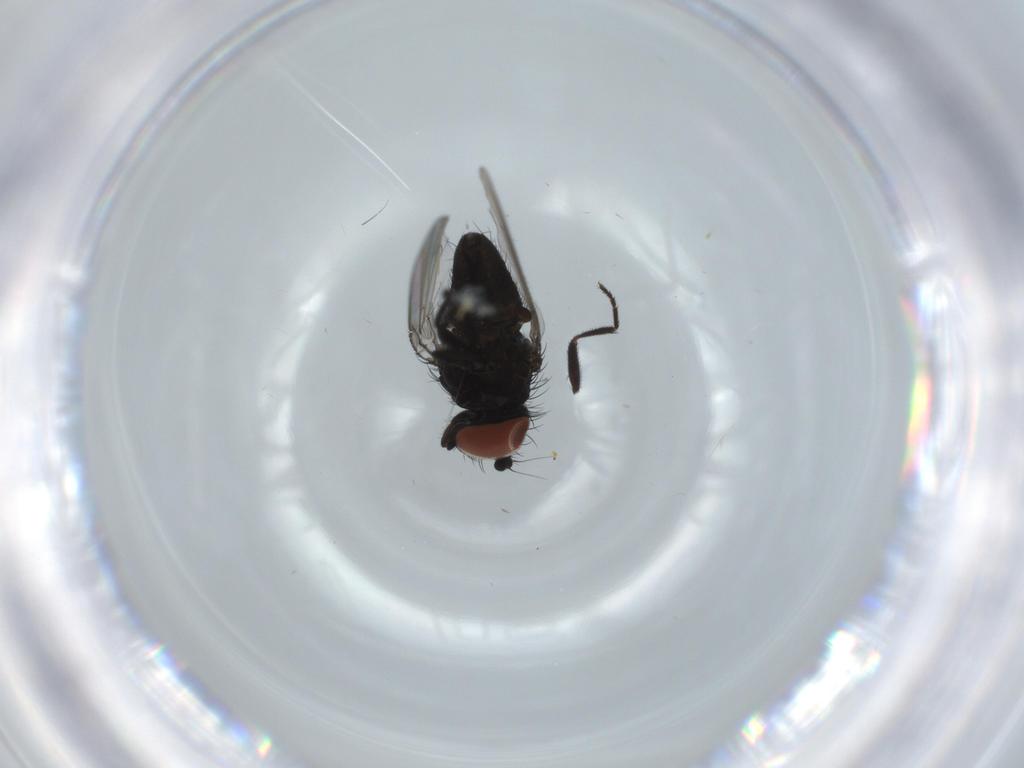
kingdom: Animalia
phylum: Arthropoda
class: Insecta
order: Diptera
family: Milichiidae
